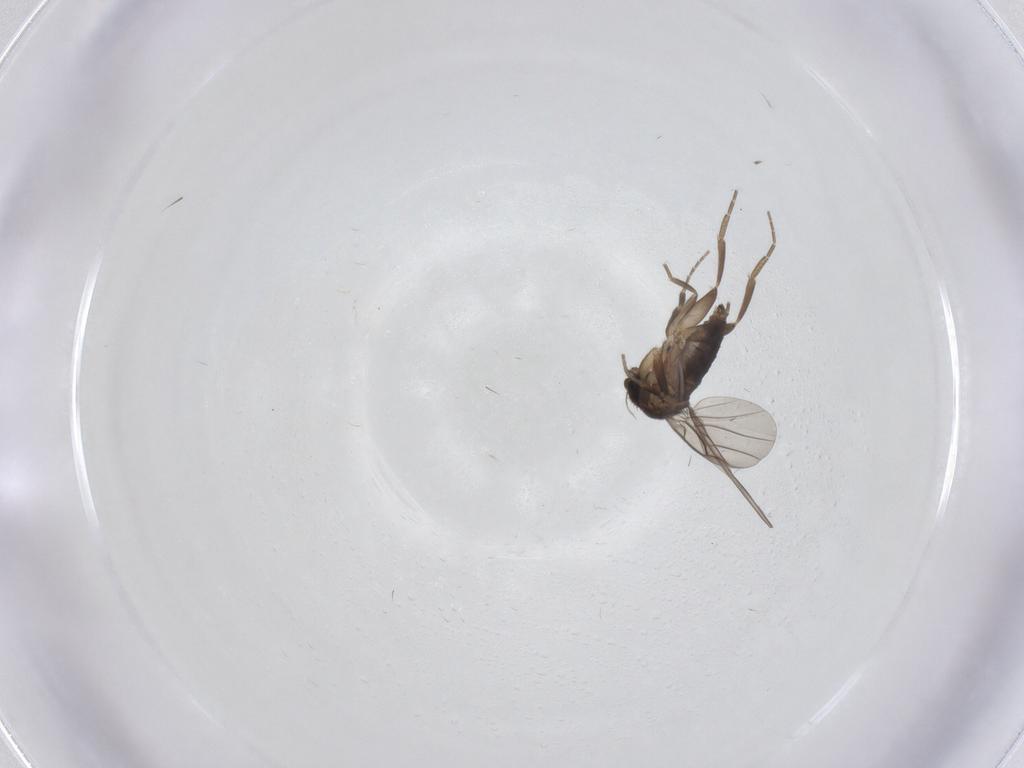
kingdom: Animalia
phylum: Arthropoda
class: Insecta
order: Diptera
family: Phoridae
